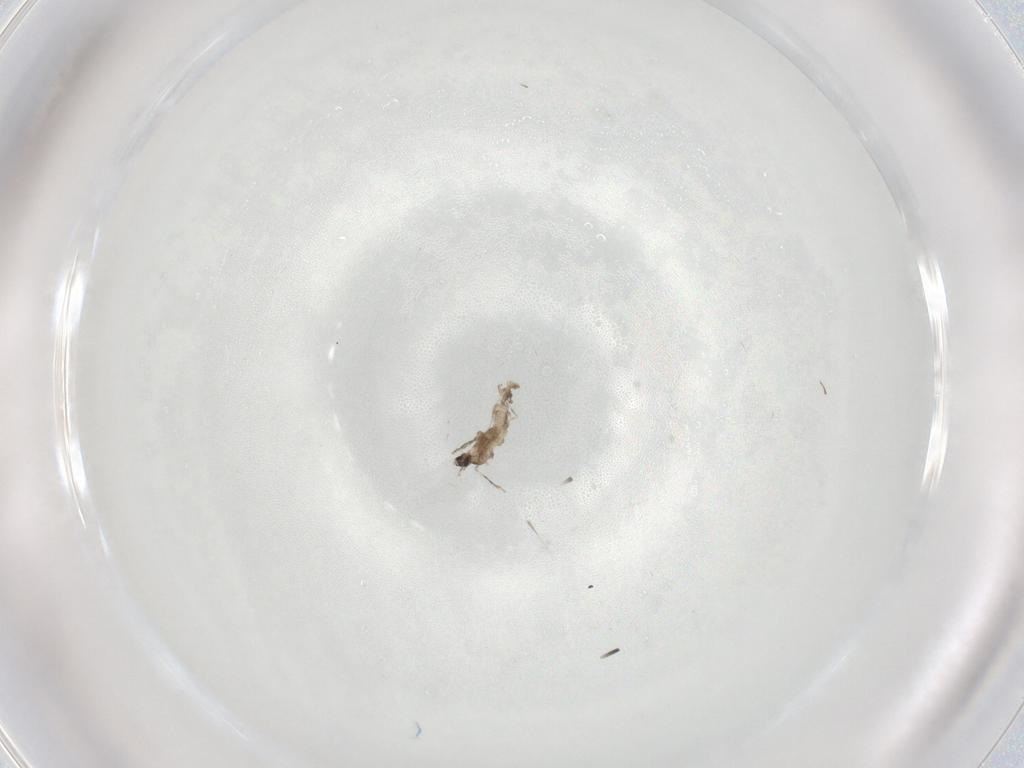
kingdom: Animalia
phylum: Arthropoda
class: Insecta
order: Diptera
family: Cecidomyiidae
